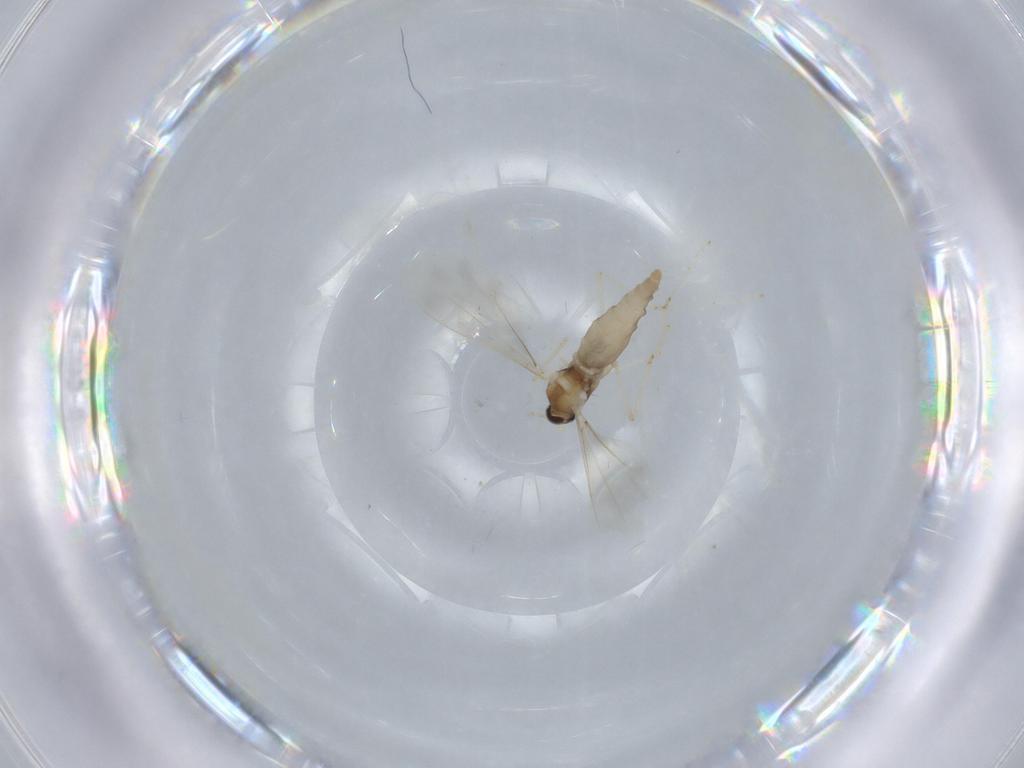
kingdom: Animalia
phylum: Arthropoda
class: Insecta
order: Diptera
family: Cecidomyiidae
